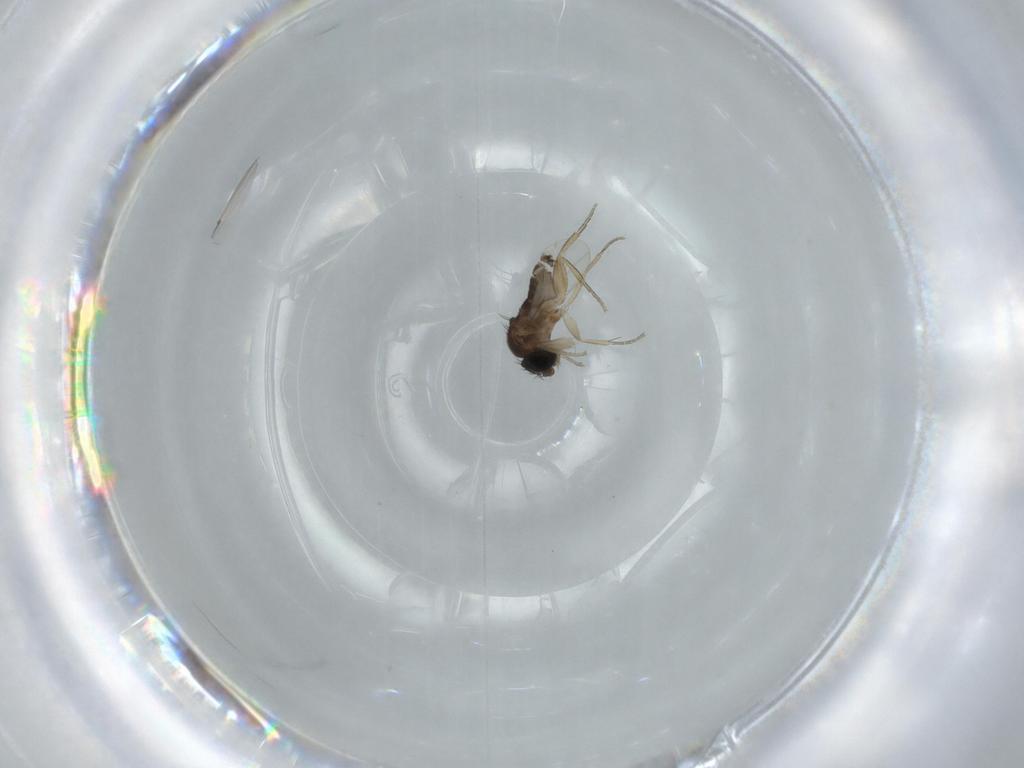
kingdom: Animalia
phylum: Arthropoda
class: Insecta
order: Diptera
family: Phoridae
